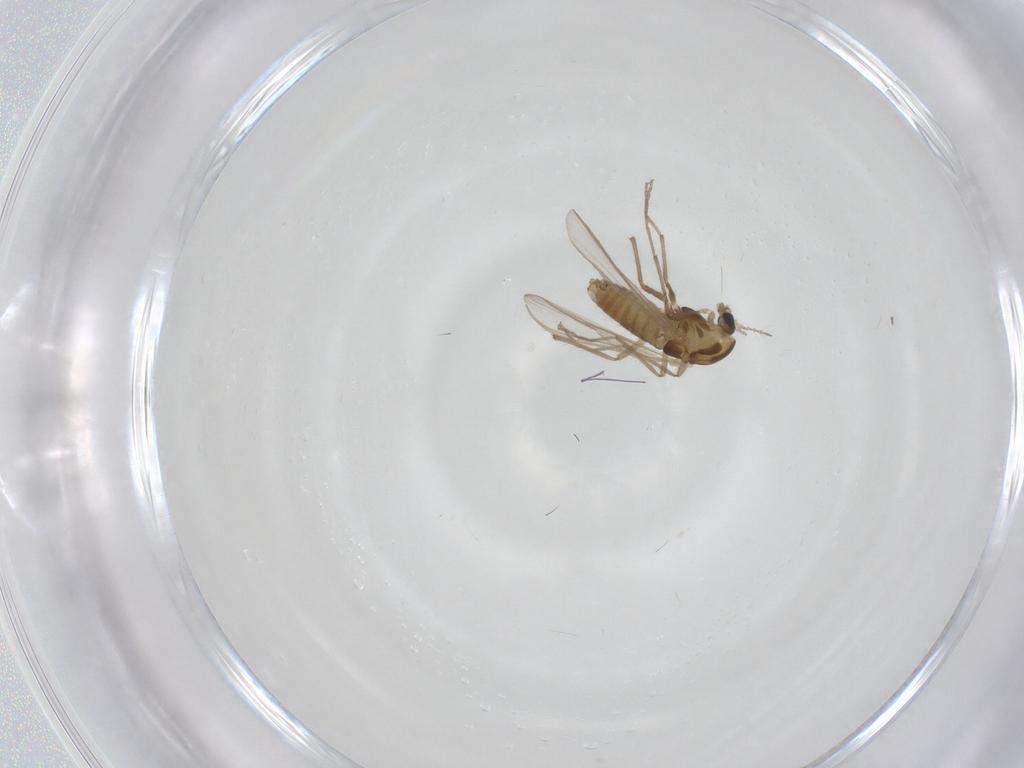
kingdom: Animalia
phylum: Arthropoda
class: Insecta
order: Diptera
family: Chironomidae
